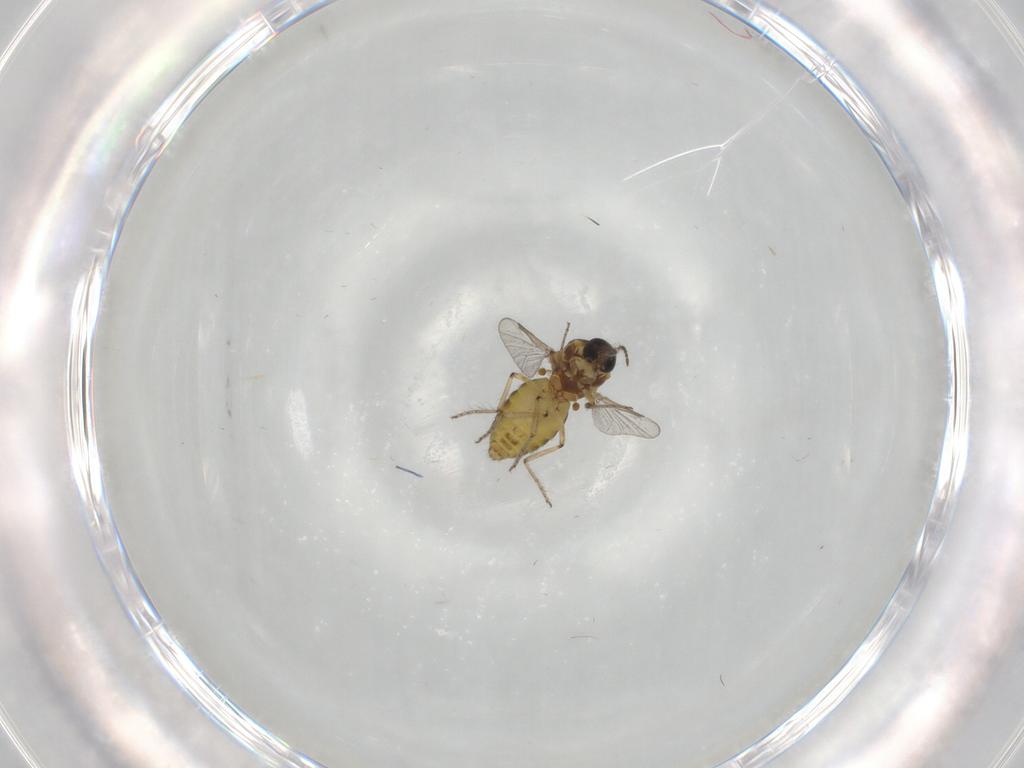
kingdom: Animalia
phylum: Arthropoda
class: Insecta
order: Diptera
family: Ceratopogonidae
